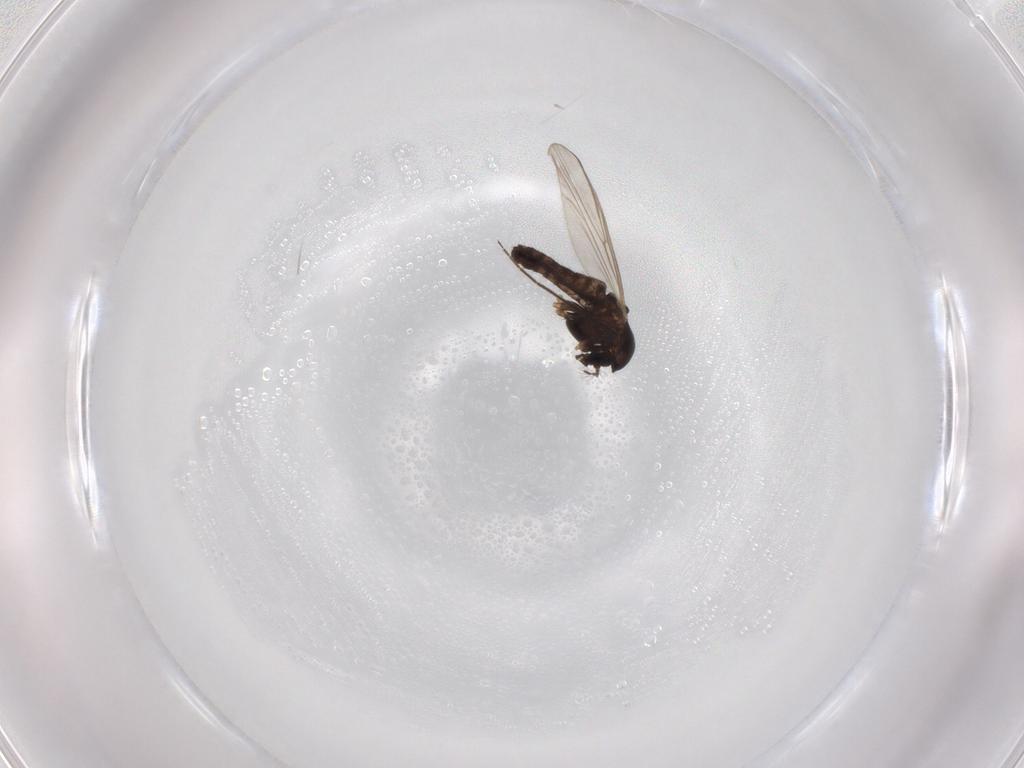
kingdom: Animalia
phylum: Arthropoda
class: Insecta
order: Diptera
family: Chironomidae
